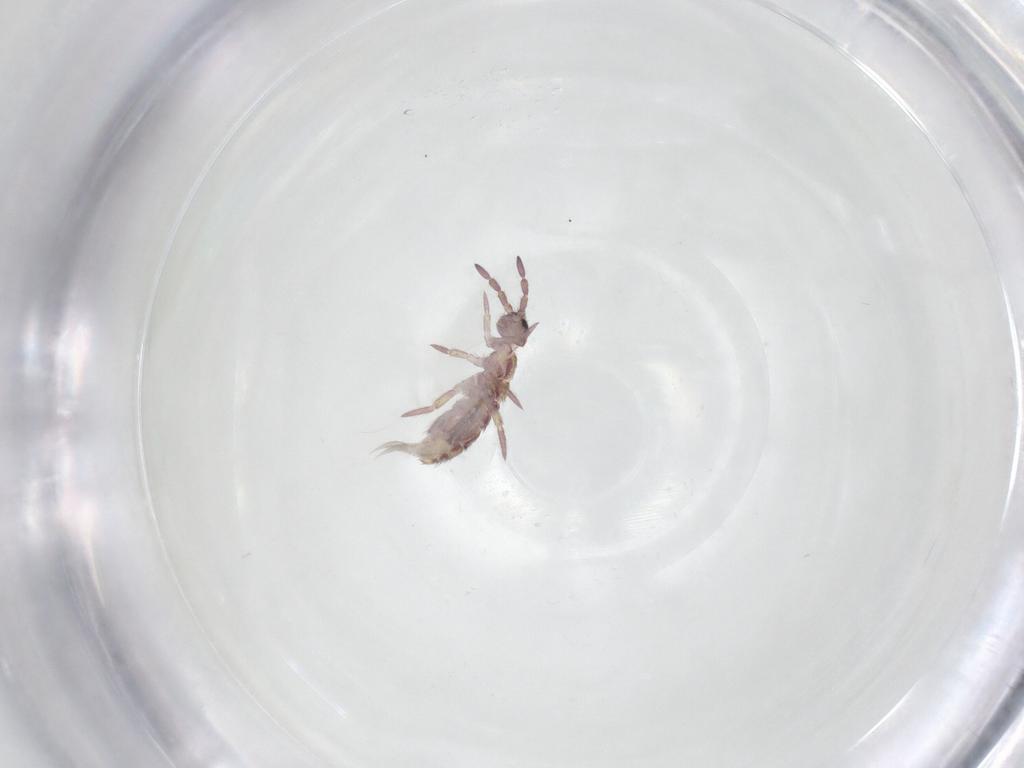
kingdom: Animalia
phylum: Arthropoda
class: Collembola
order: Entomobryomorpha
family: Isotomidae
